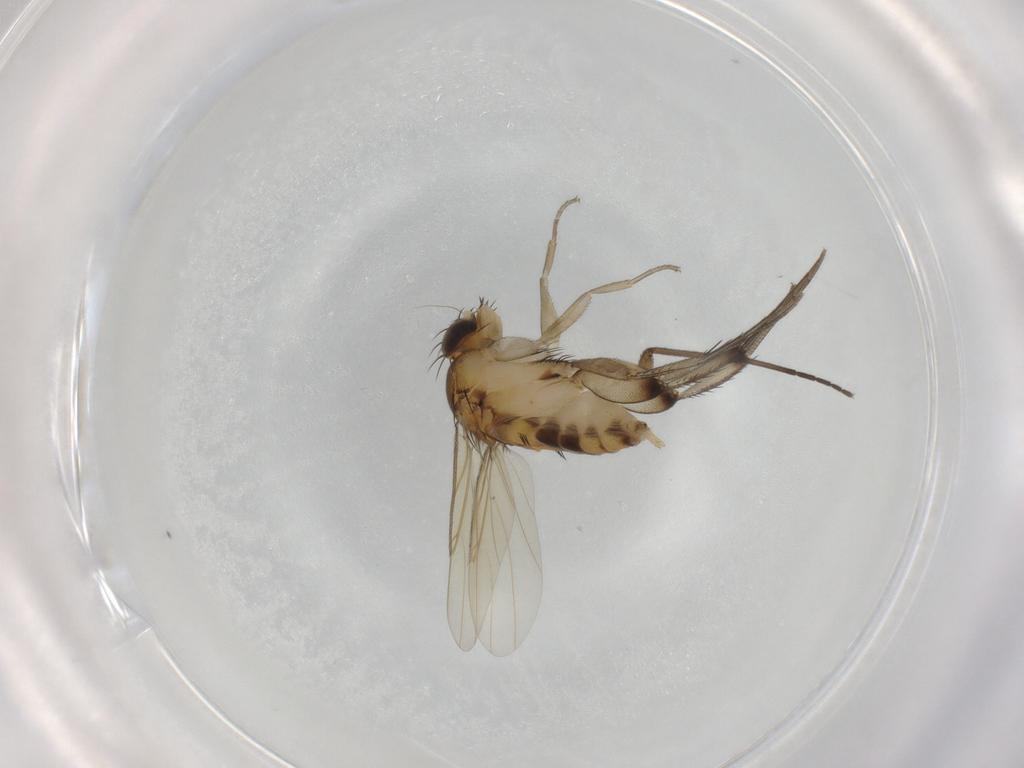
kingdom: Animalia
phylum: Arthropoda
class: Insecta
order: Diptera
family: Phoridae
